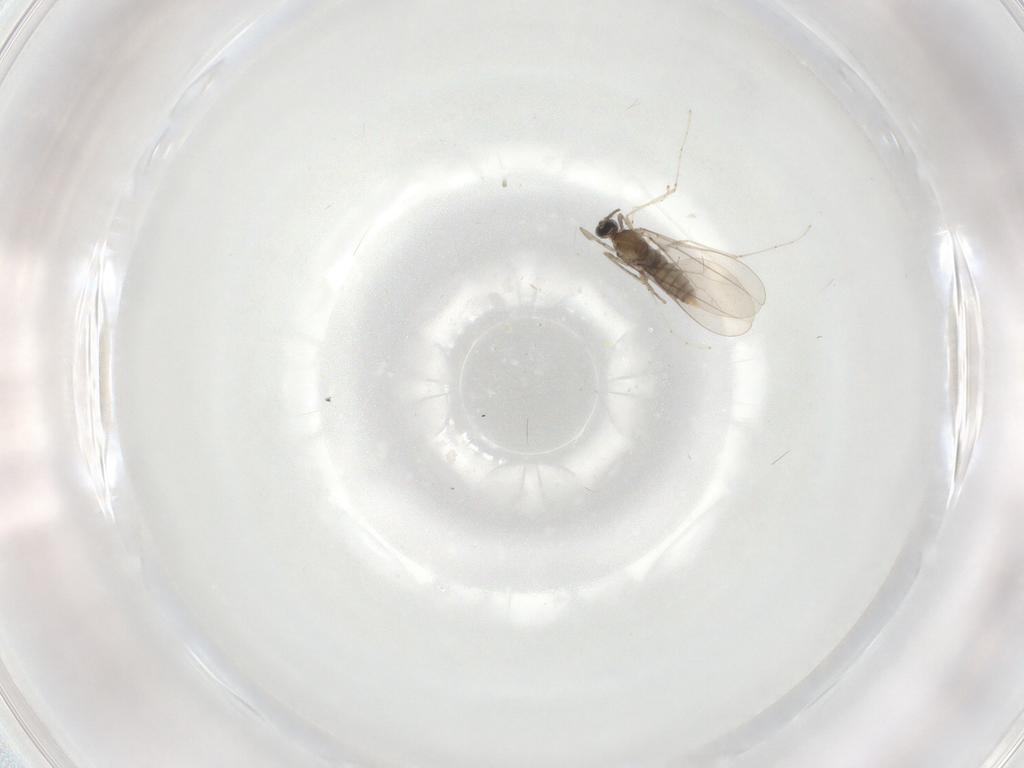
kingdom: Animalia
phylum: Arthropoda
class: Insecta
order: Diptera
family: Cecidomyiidae
